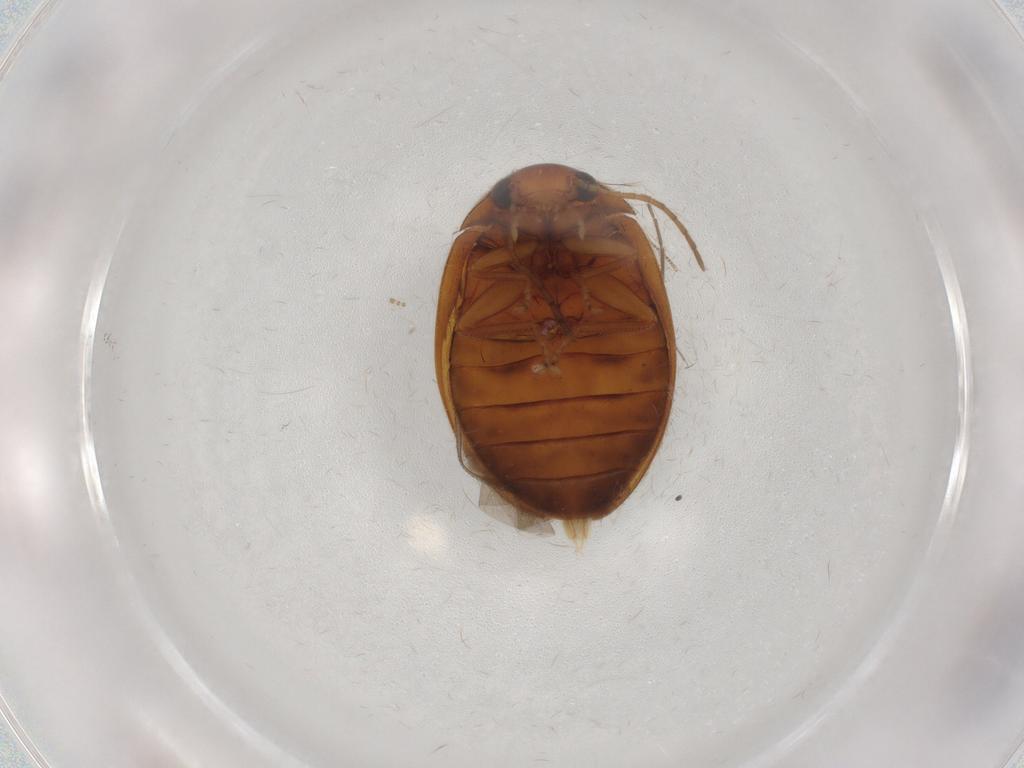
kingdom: Animalia
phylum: Arthropoda
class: Insecta
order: Coleoptera
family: Scirtidae
